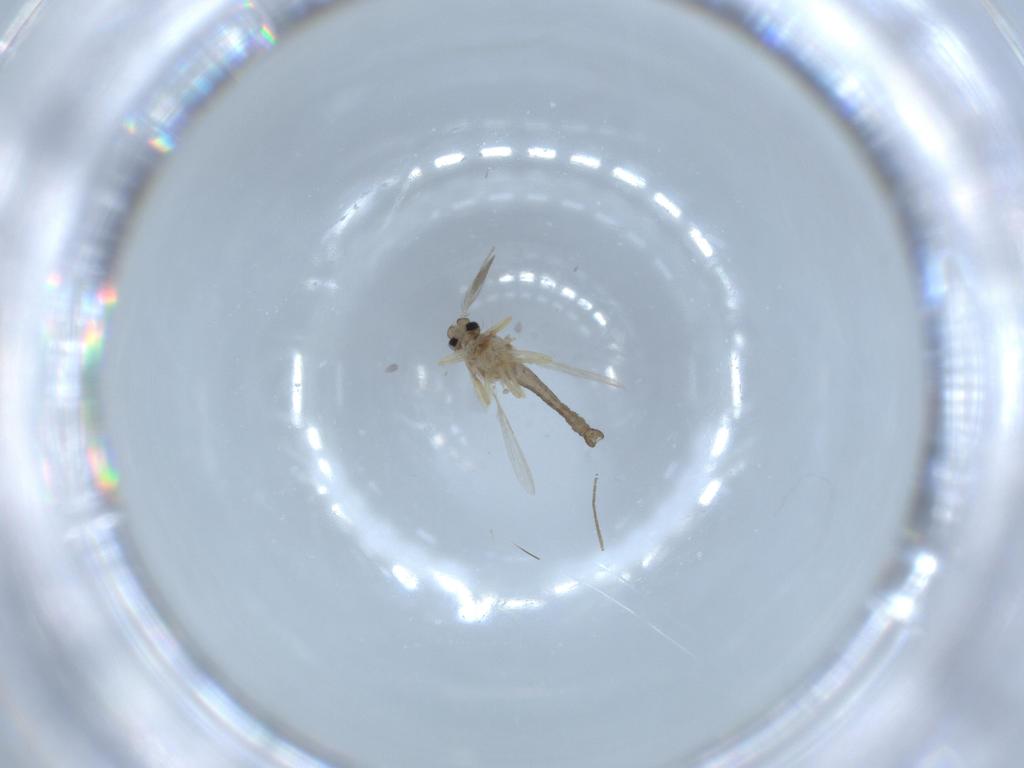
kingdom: Animalia
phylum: Arthropoda
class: Insecta
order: Diptera
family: Ceratopogonidae
